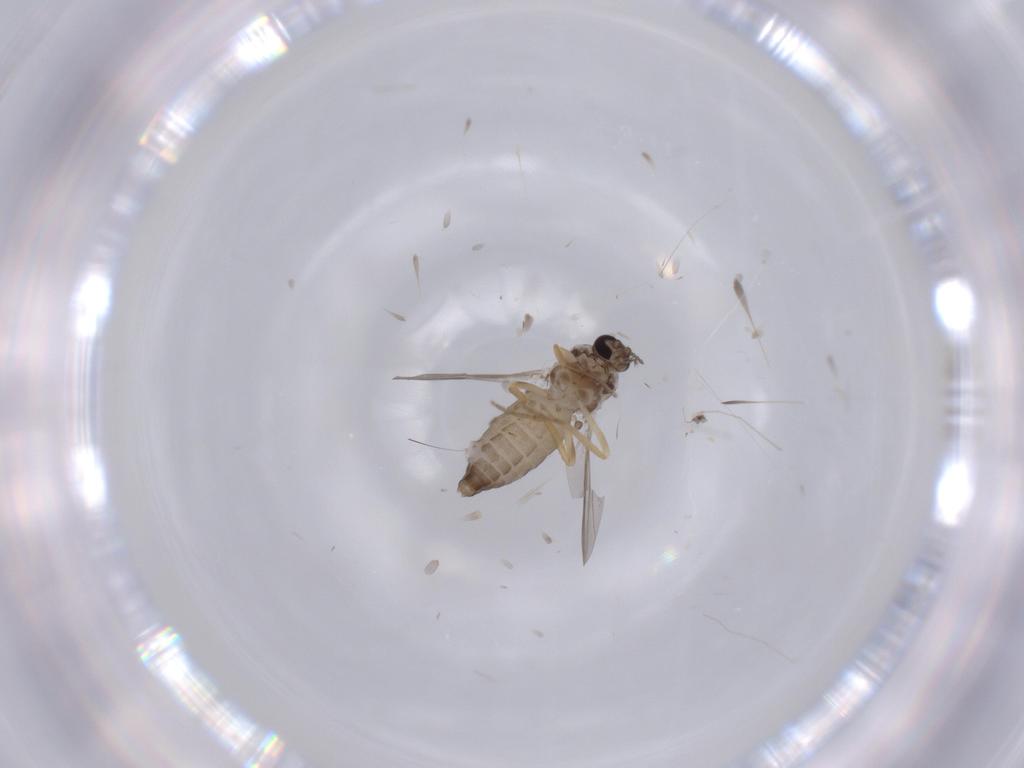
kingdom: Animalia
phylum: Arthropoda
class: Insecta
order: Diptera
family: Ceratopogonidae
